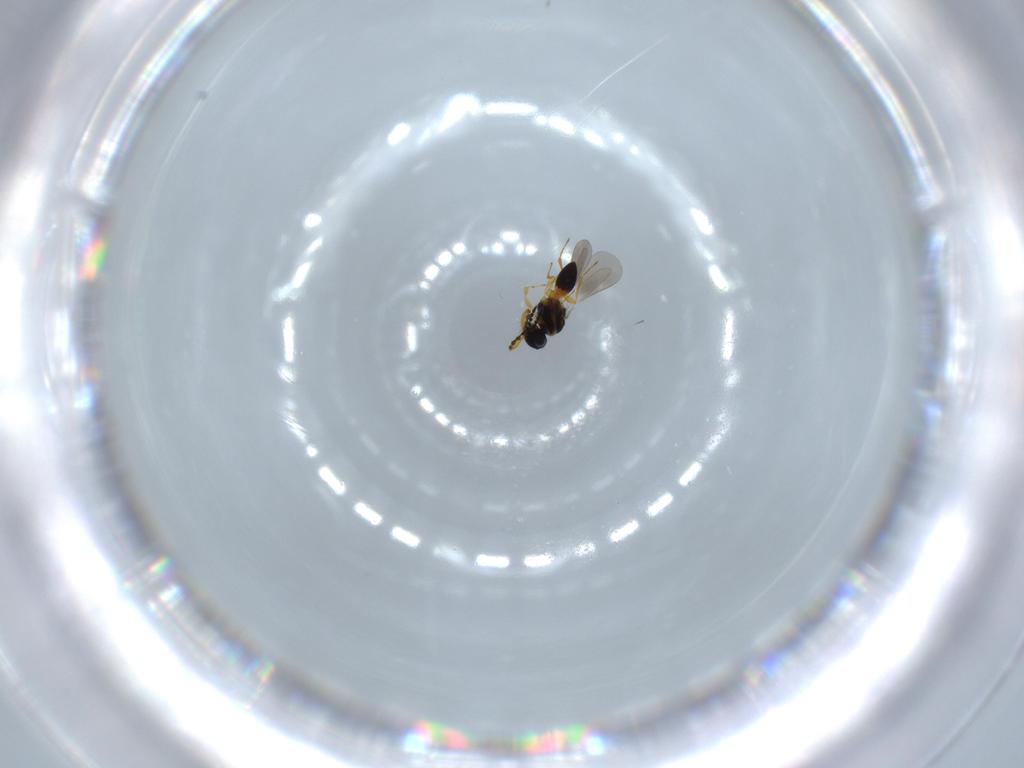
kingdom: Animalia
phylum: Arthropoda
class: Insecta
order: Hymenoptera
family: Platygastridae
